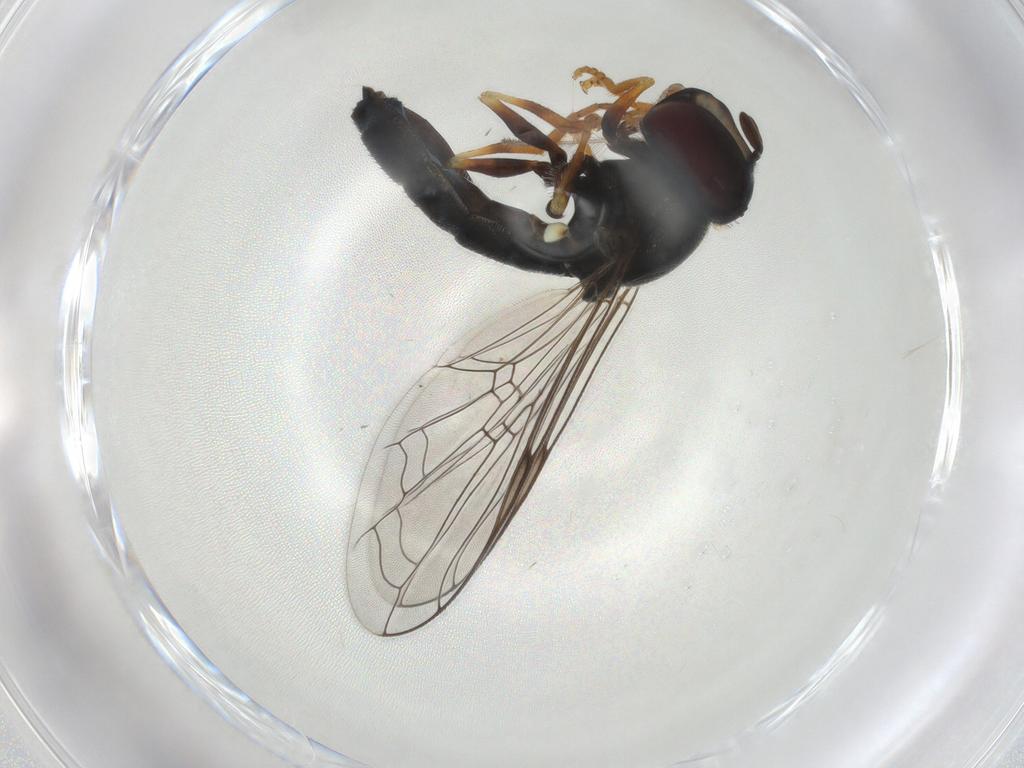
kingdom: Animalia
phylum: Arthropoda
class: Insecta
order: Diptera
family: Syrphidae
